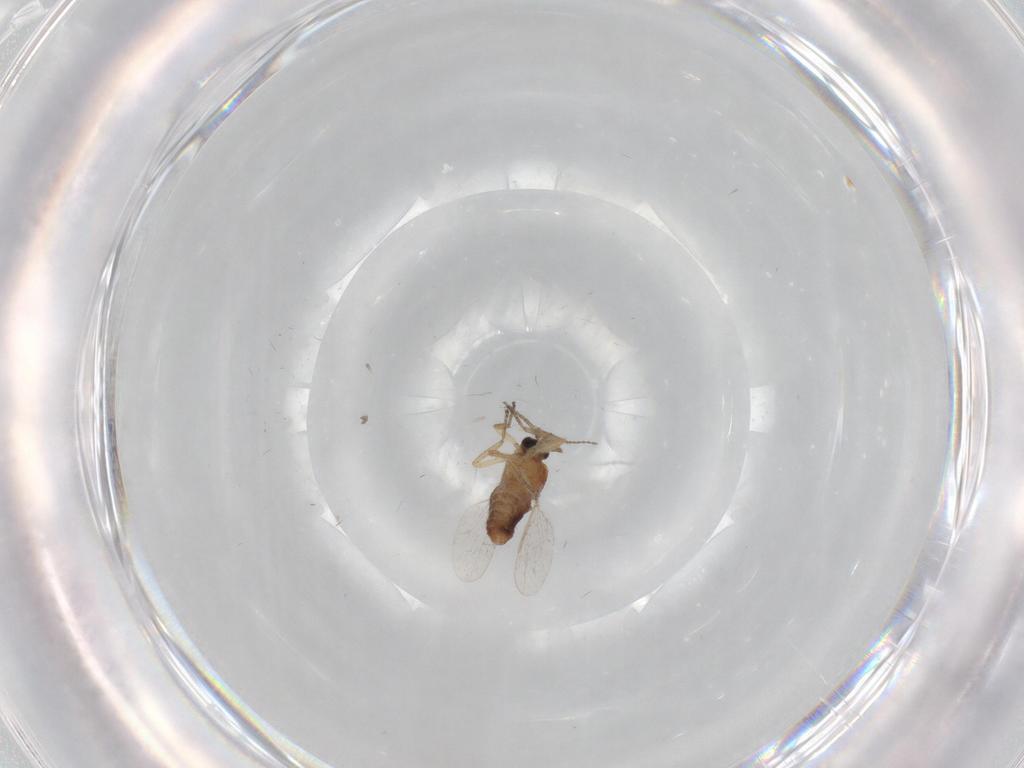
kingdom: Animalia
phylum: Arthropoda
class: Insecta
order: Diptera
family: Ceratopogonidae
